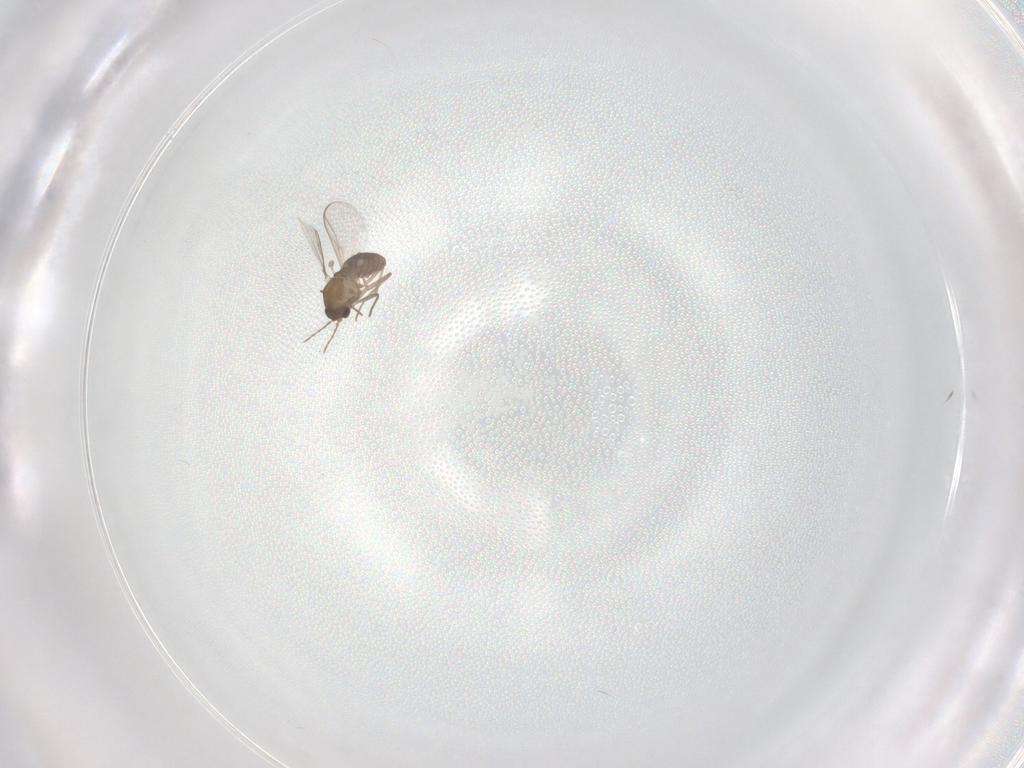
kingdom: Animalia
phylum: Arthropoda
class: Insecta
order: Diptera
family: Chironomidae
